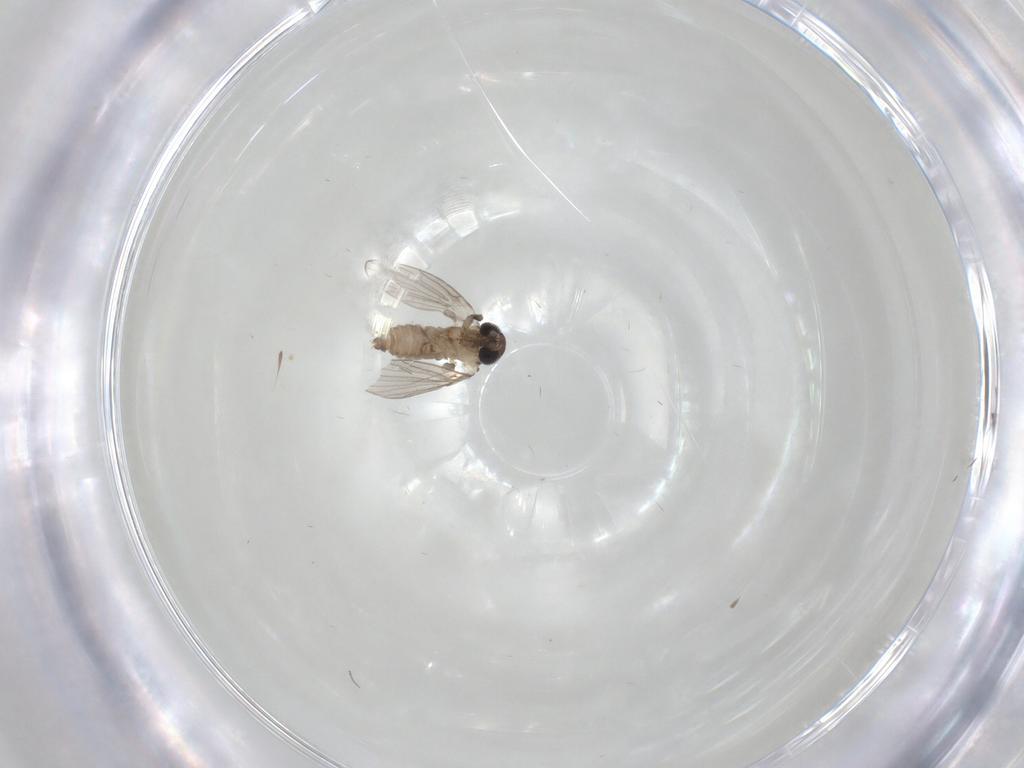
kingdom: Animalia
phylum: Arthropoda
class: Insecta
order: Diptera
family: Psychodidae
